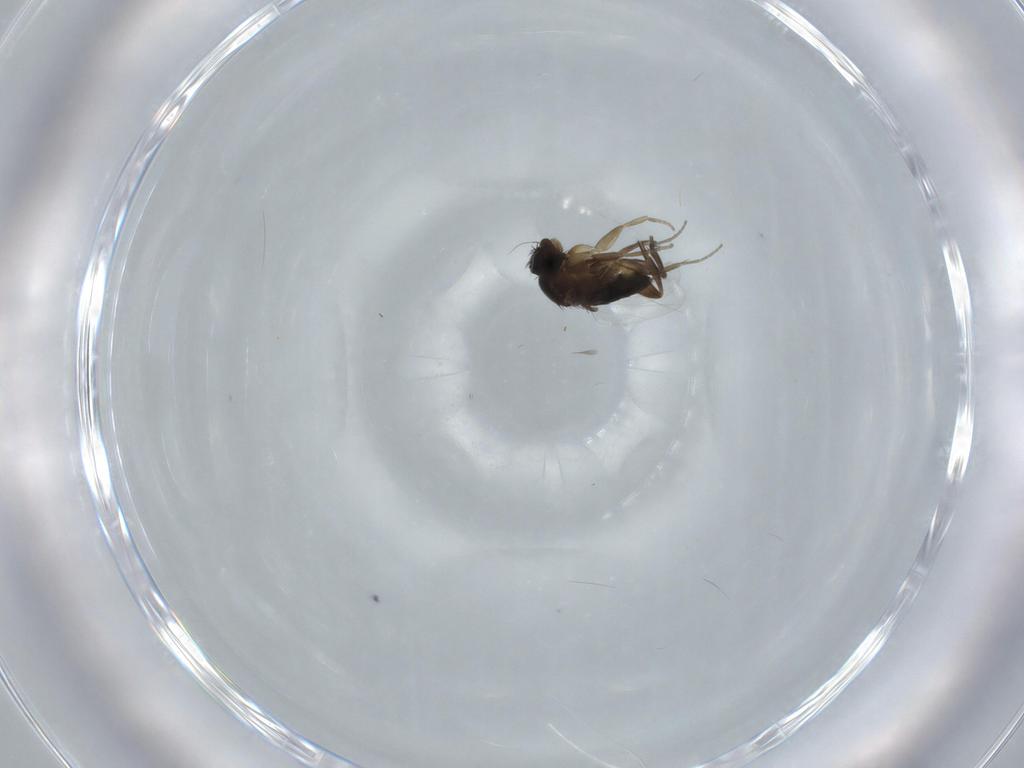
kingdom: Animalia
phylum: Arthropoda
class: Insecta
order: Diptera
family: Phoridae
